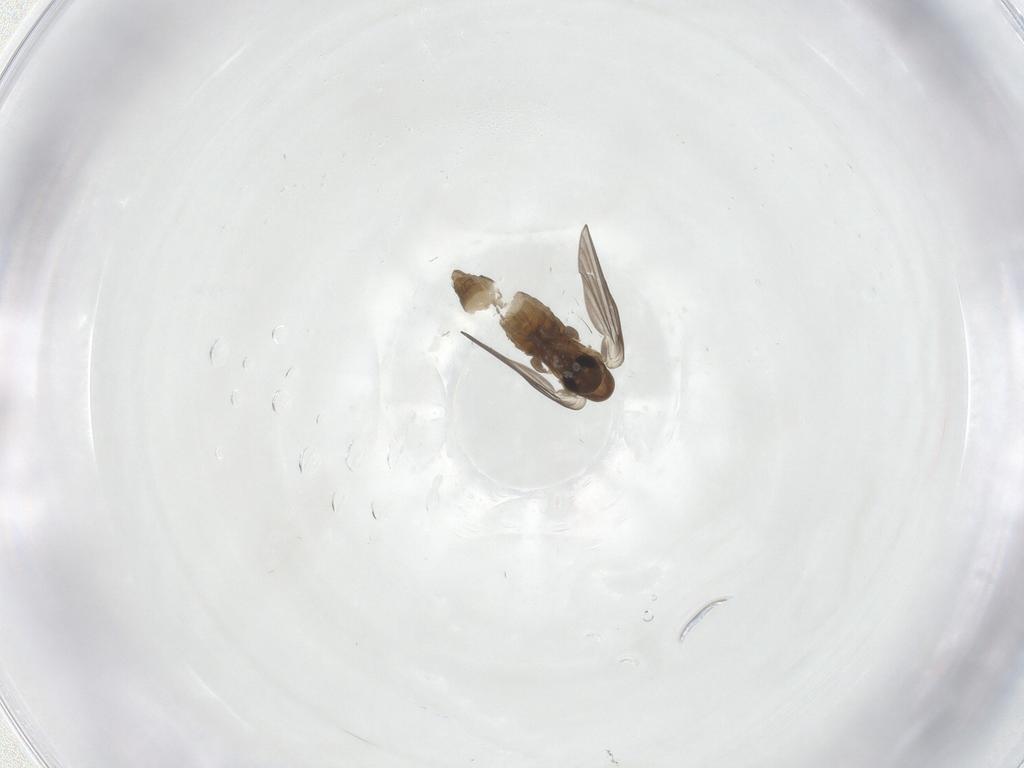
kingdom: Animalia
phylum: Arthropoda
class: Insecta
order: Diptera
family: Psychodidae
